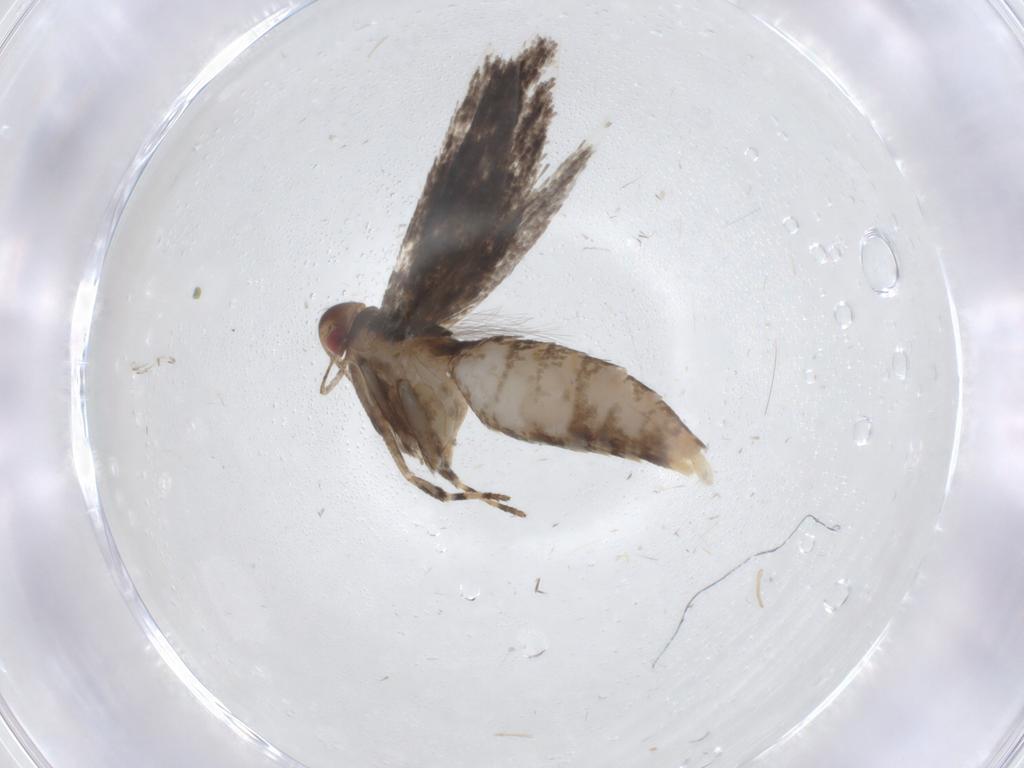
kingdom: Animalia
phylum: Arthropoda
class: Insecta
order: Lepidoptera
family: Cosmopterigidae
